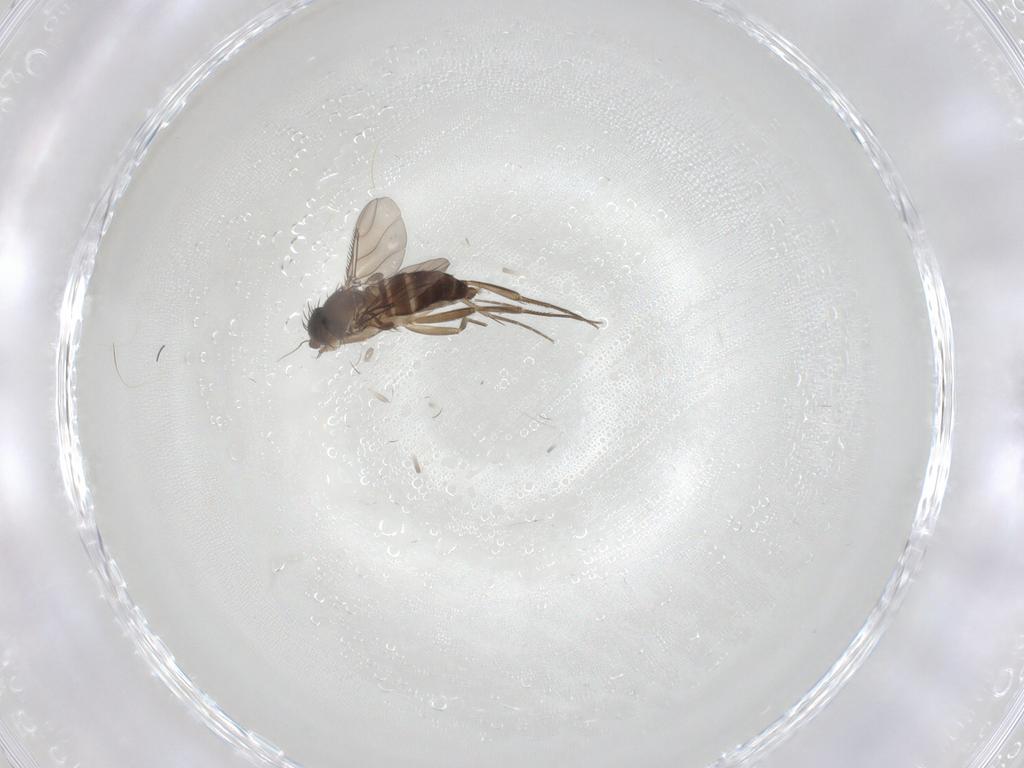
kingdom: Animalia
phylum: Arthropoda
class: Insecta
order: Diptera
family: Phoridae
